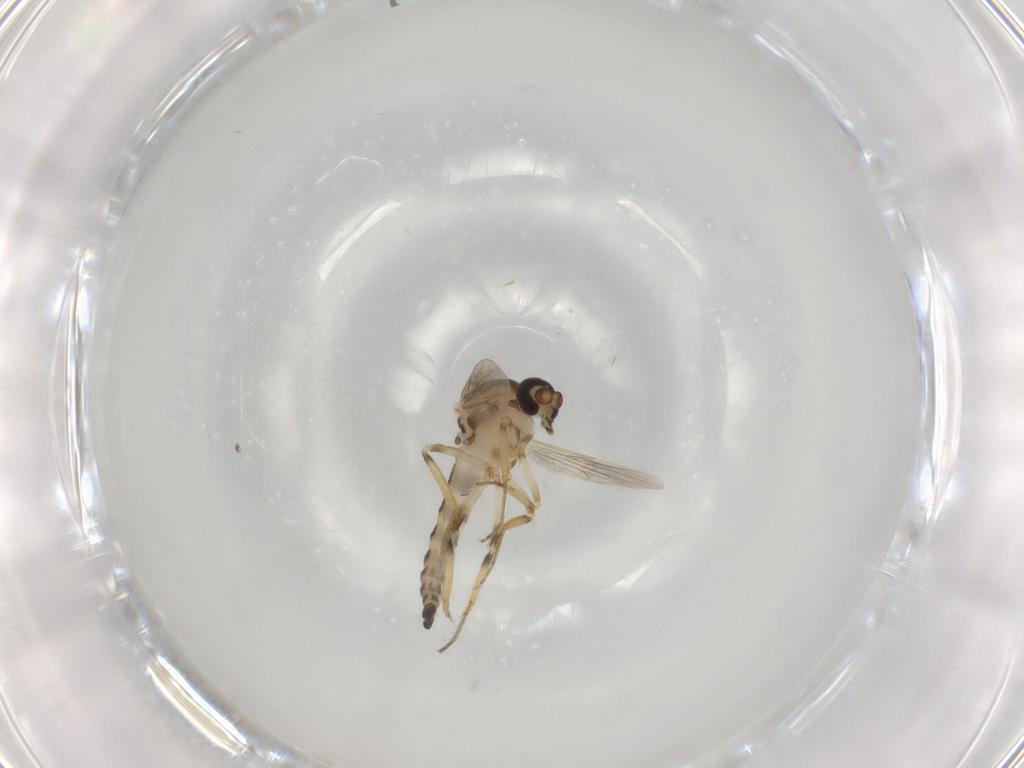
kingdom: Animalia
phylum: Arthropoda
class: Insecta
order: Diptera
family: Ceratopogonidae
